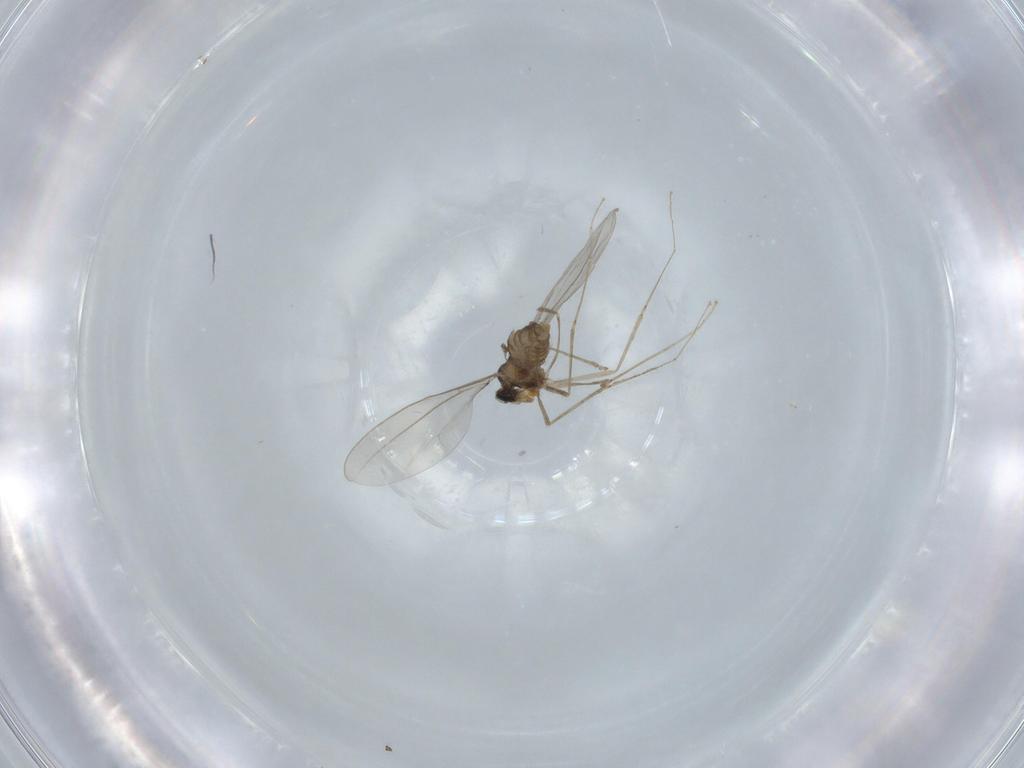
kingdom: Animalia
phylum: Arthropoda
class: Insecta
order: Diptera
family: Cecidomyiidae
